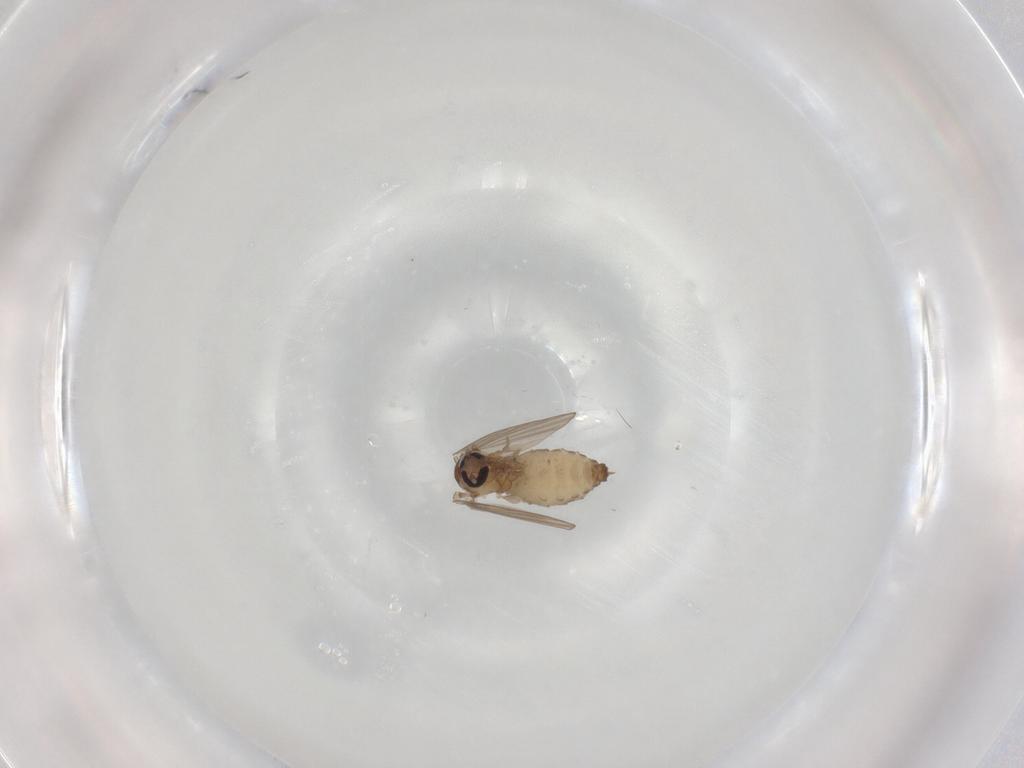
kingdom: Animalia
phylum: Arthropoda
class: Insecta
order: Diptera
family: Psychodidae
